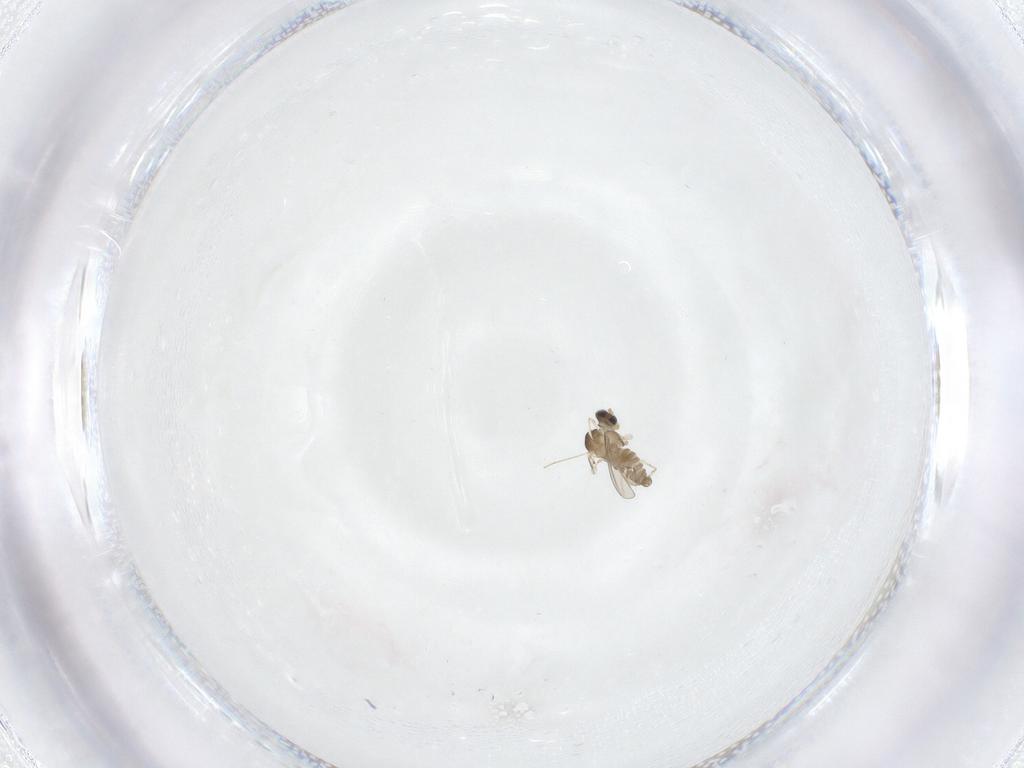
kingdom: Animalia
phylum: Arthropoda
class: Insecta
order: Diptera
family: Cecidomyiidae
